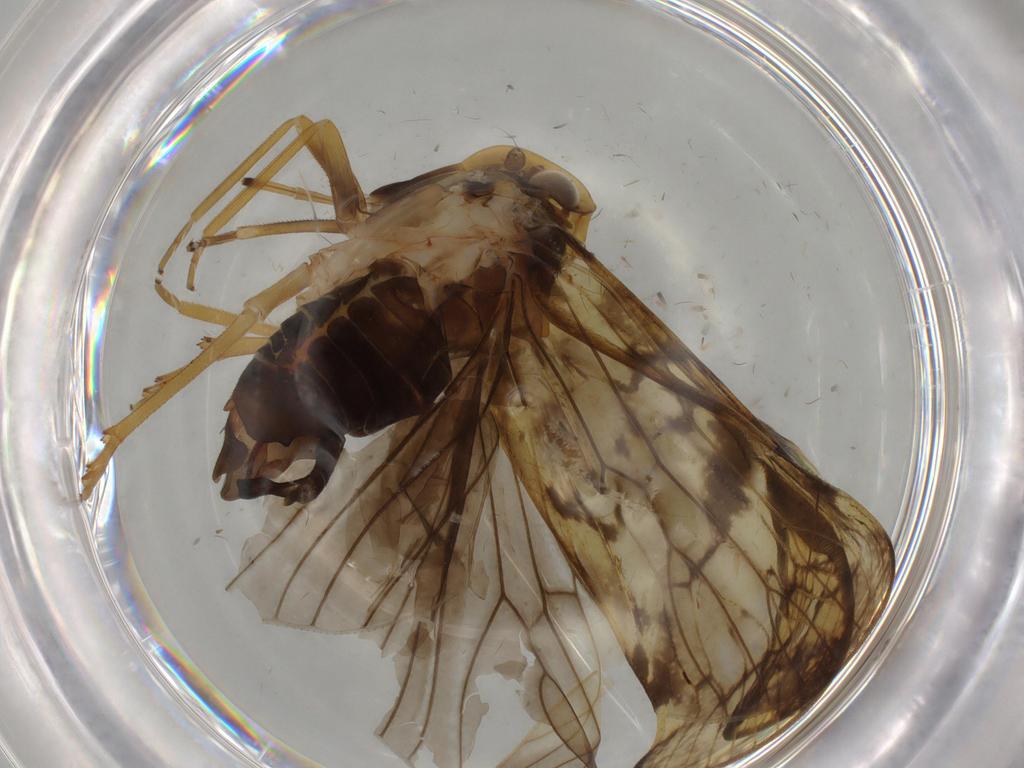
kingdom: Animalia
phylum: Arthropoda
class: Insecta
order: Hemiptera
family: Cixiidae
